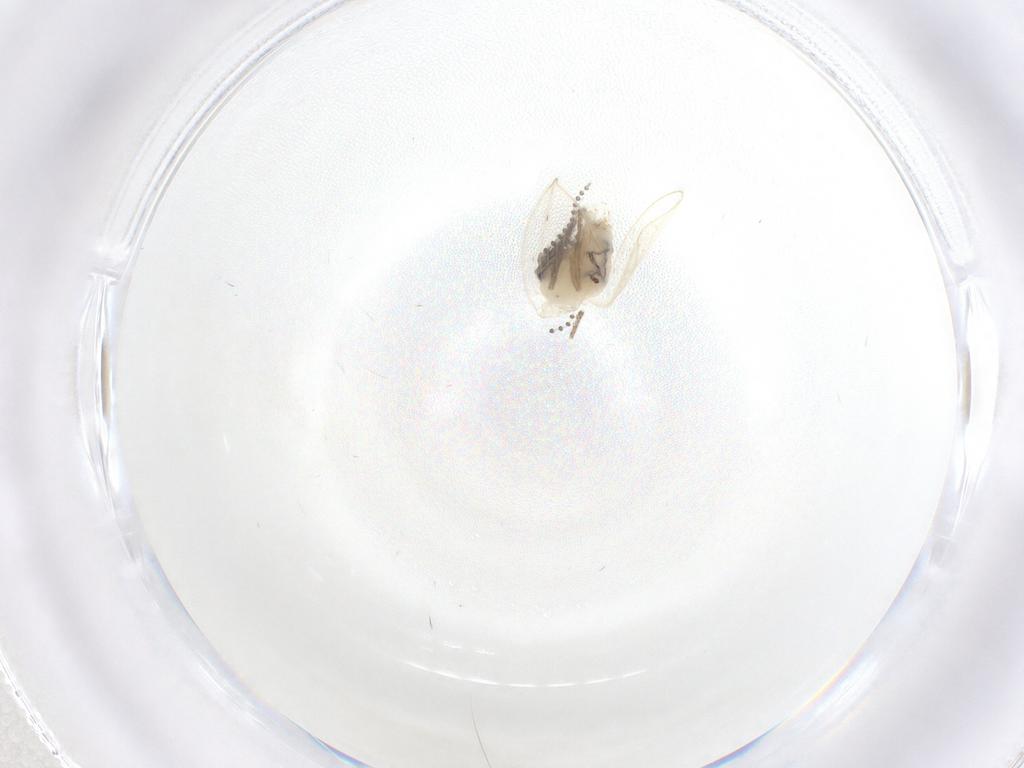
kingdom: Animalia
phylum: Arthropoda
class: Insecta
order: Diptera
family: Psychodidae
